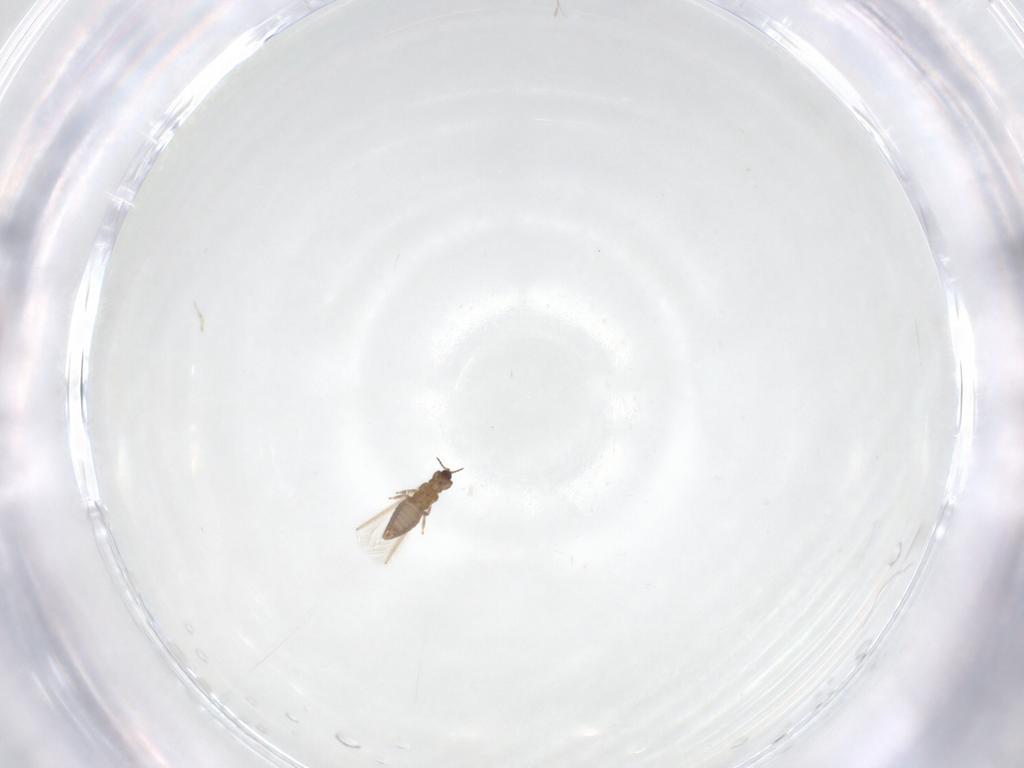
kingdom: Animalia
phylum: Arthropoda
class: Insecta
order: Thysanoptera
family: Heterothripidae
